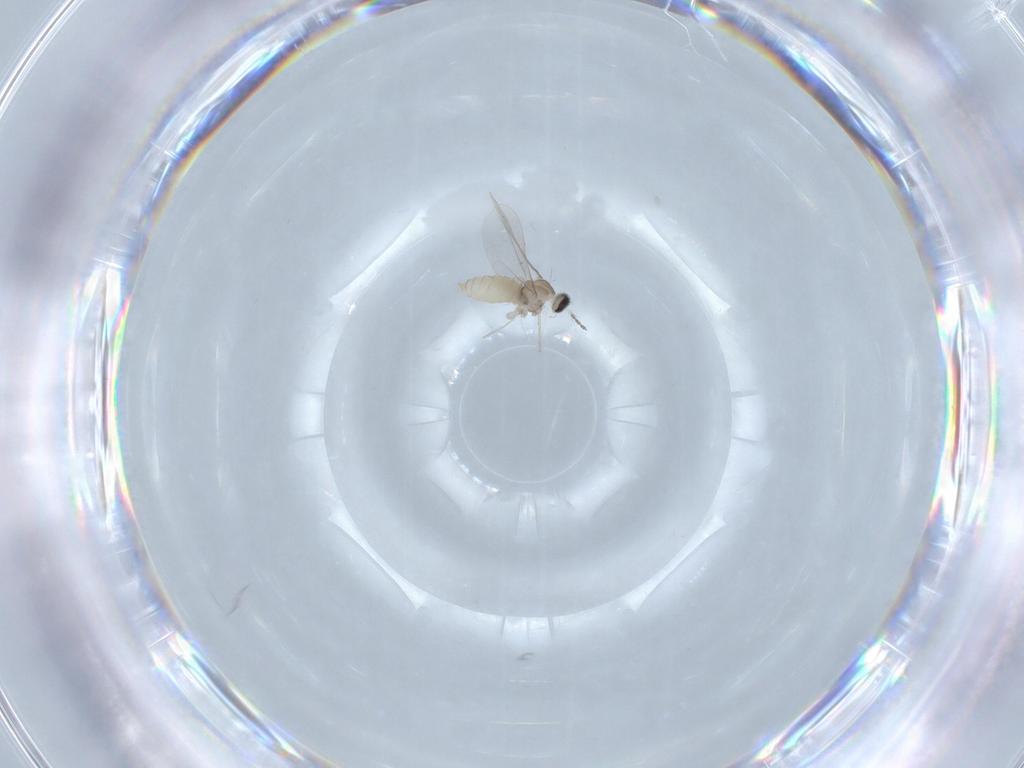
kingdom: Animalia
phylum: Arthropoda
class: Insecta
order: Diptera
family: Cecidomyiidae
